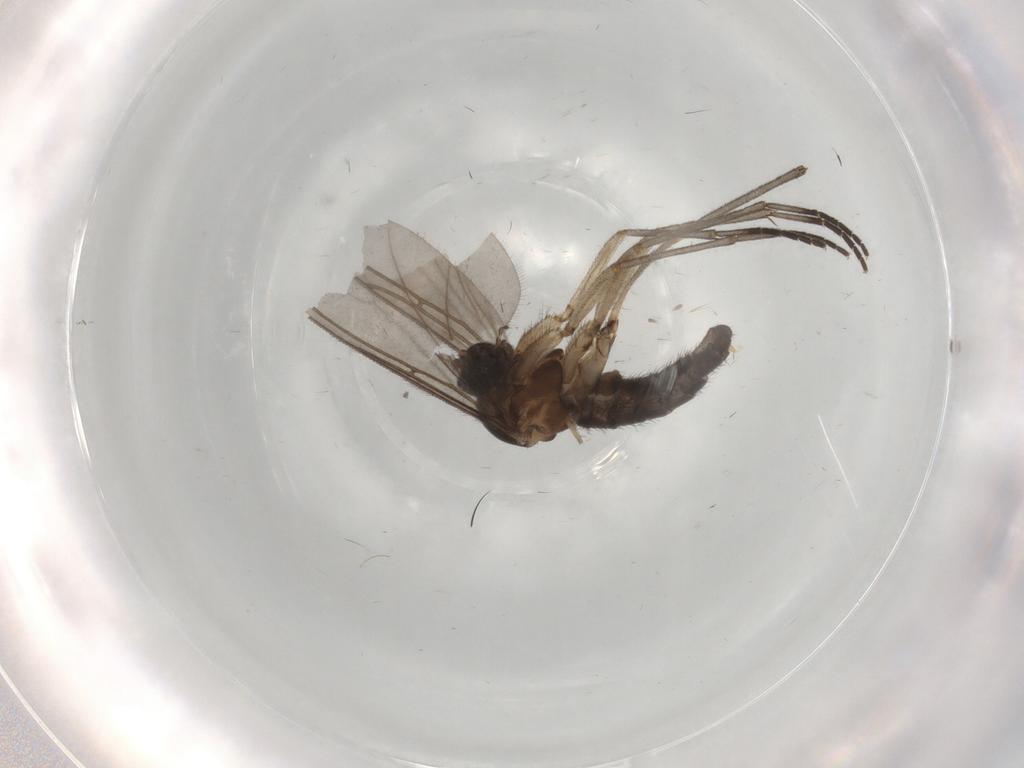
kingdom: Animalia
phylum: Arthropoda
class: Insecta
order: Diptera
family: Sciaridae
